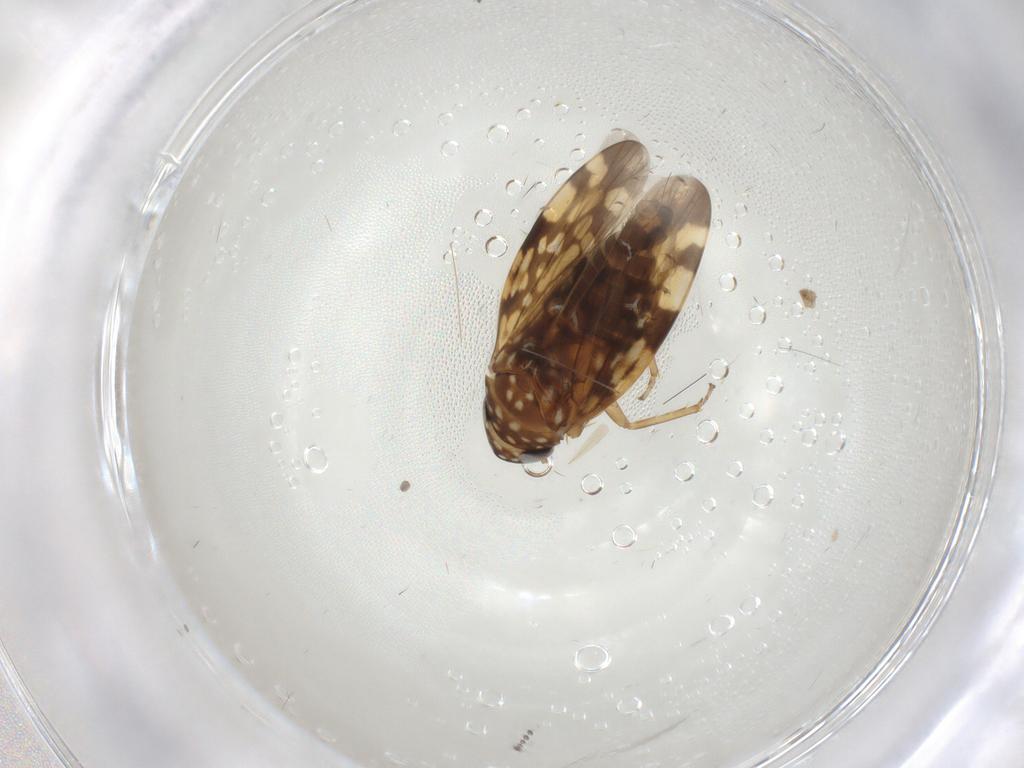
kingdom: Animalia
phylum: Arthropoda
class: Insecta
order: Hemiptera
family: Cicadellidae
